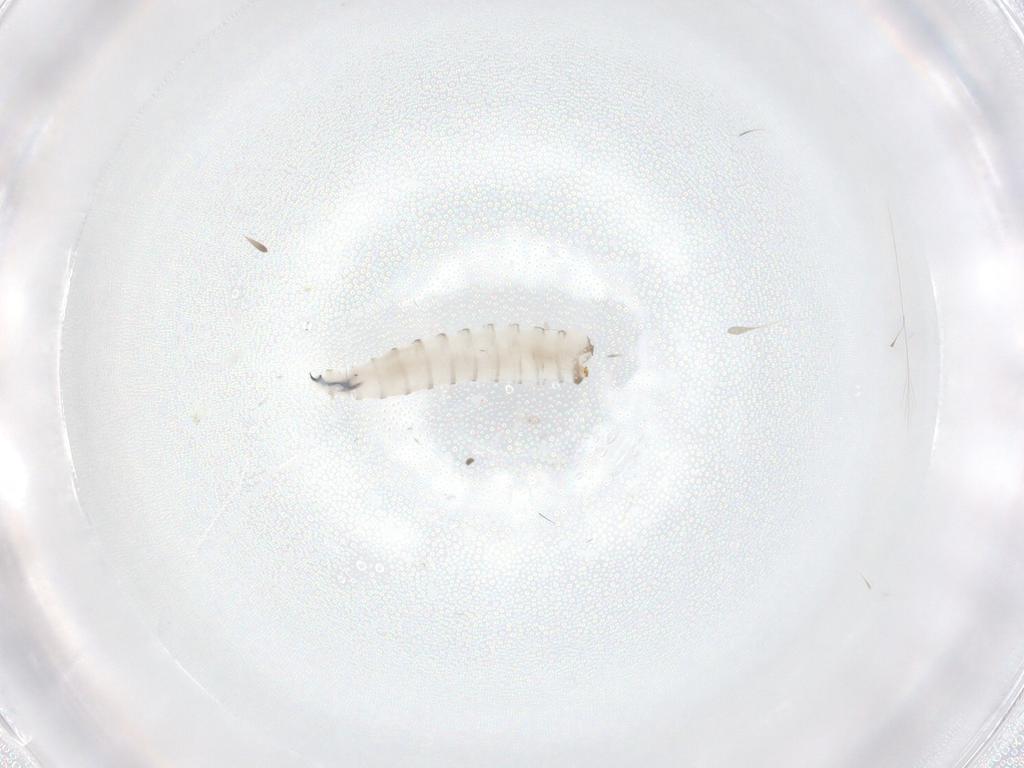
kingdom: Animalia
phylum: Arthropoda
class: Insecta
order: Diptera
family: Sarcophagidae
